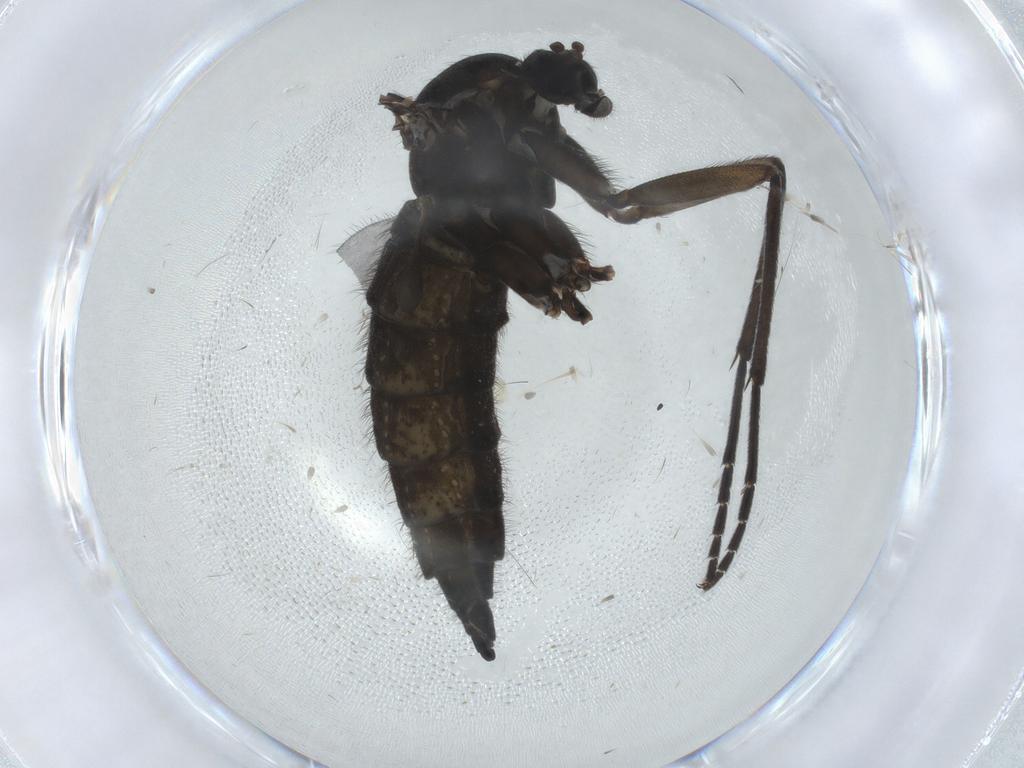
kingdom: Animalia
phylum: Arthropoda
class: Insecta
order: Diptera
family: Sciaridae
